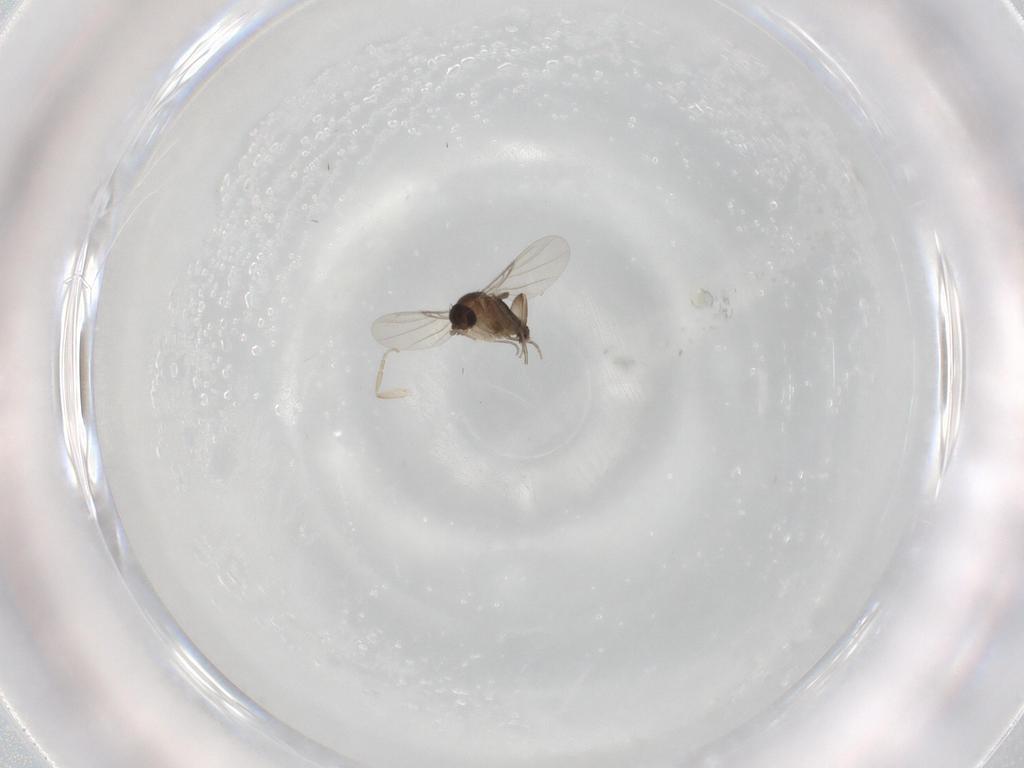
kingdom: Animalia
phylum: Arthropoda
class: Insecta
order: Diptera
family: Phoridae
